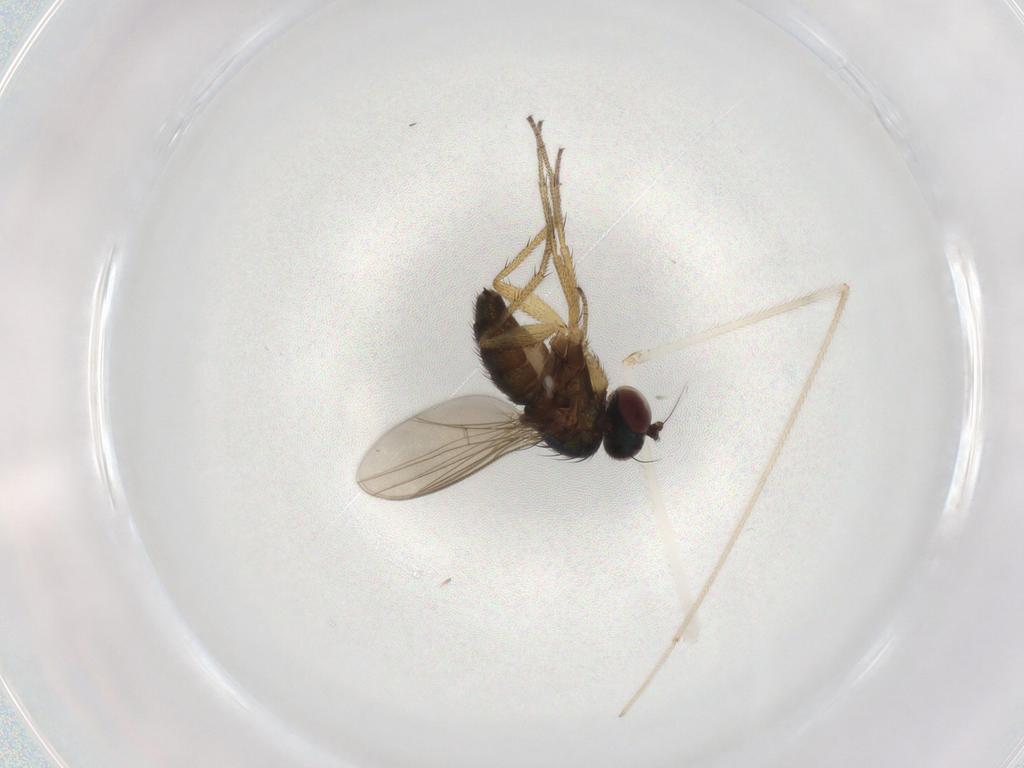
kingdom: Animalia
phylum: Arthropoda
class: Insecta
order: Diptera
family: Dolichopodidae
